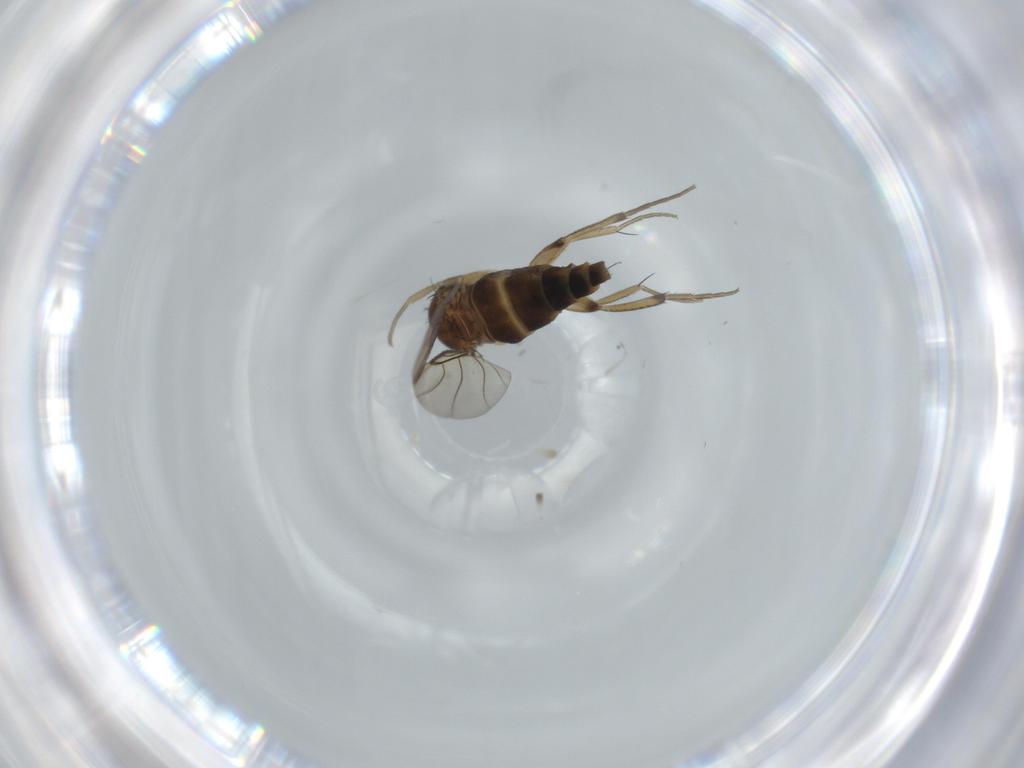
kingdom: Animalia
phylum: Arthropoda
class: Insecta
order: Diptera
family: Phoridae
